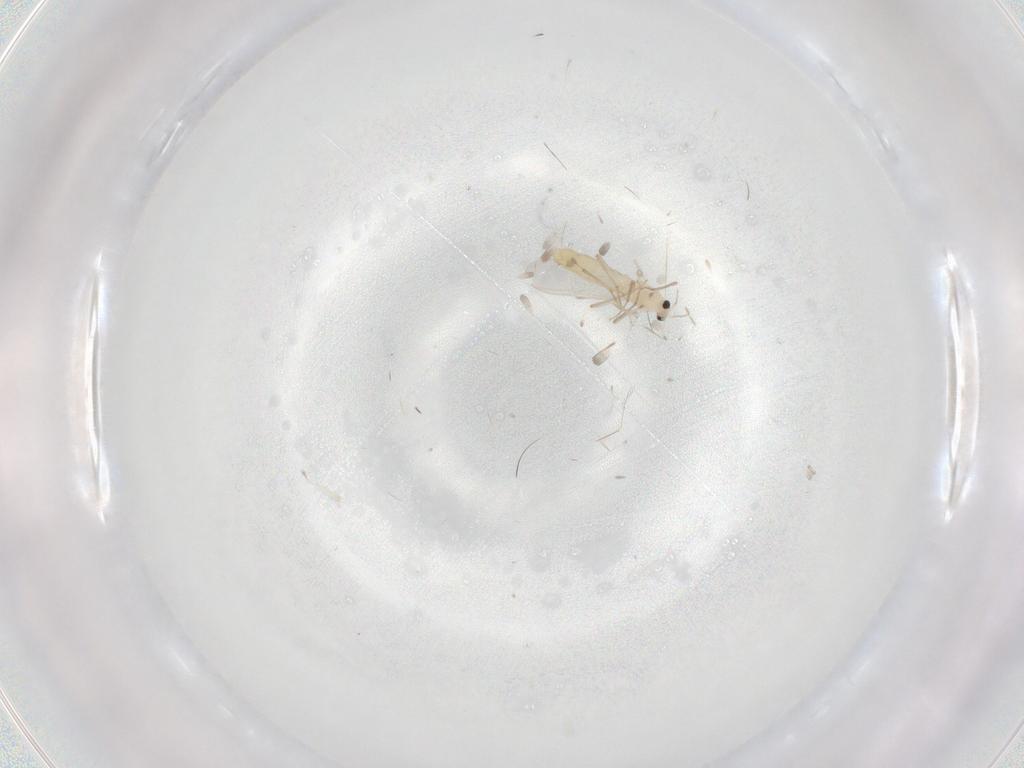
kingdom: Animalia
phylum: Arthropoda
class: Insecta
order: Diptera
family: Chironomidae
